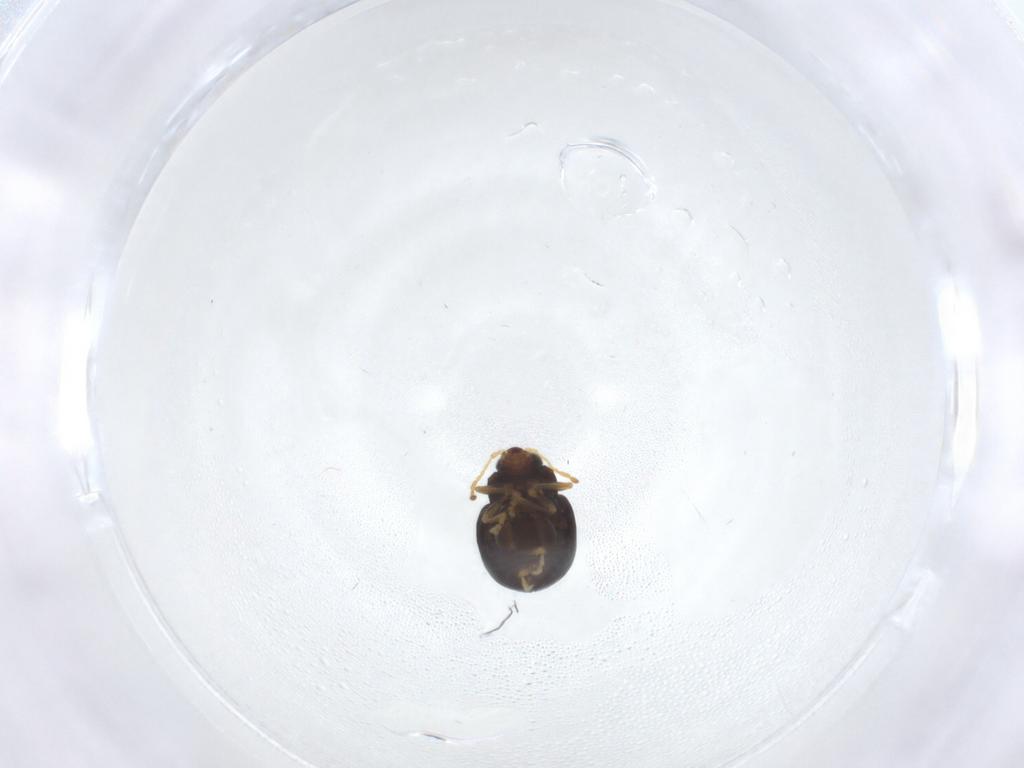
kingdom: Animalia
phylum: Arthropoda
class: Insecta
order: Coleoptera
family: Chrysomelidae
